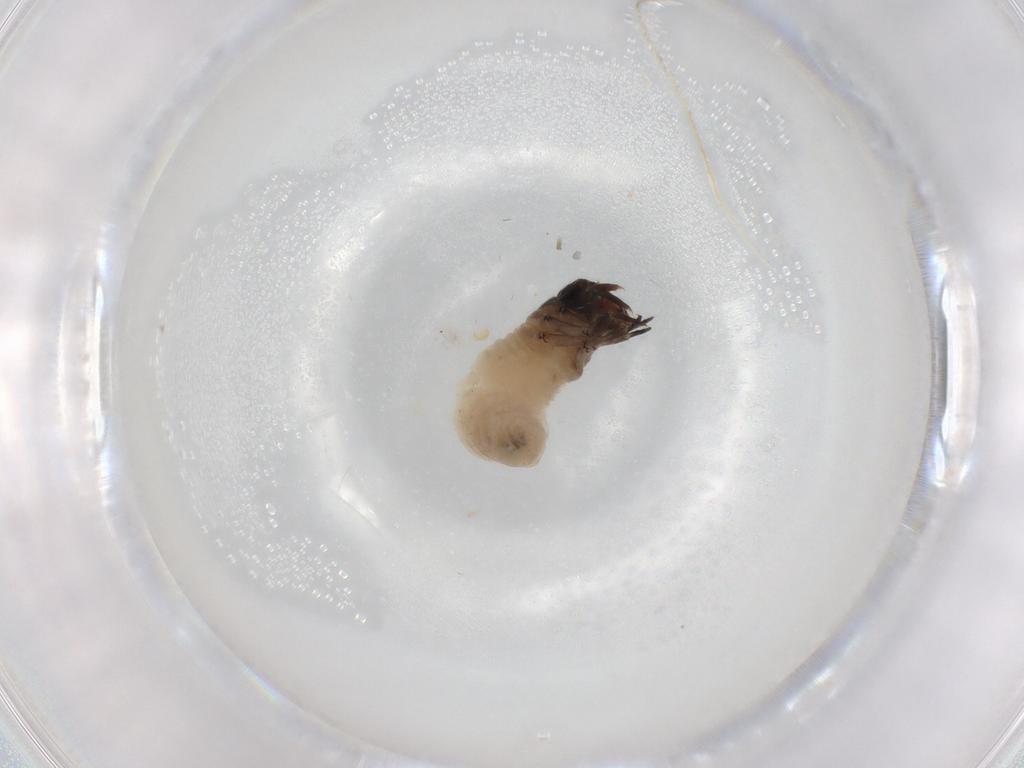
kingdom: Animalia
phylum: Arthropoda
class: Insecta
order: Coleoptera
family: Chrysomelidae
